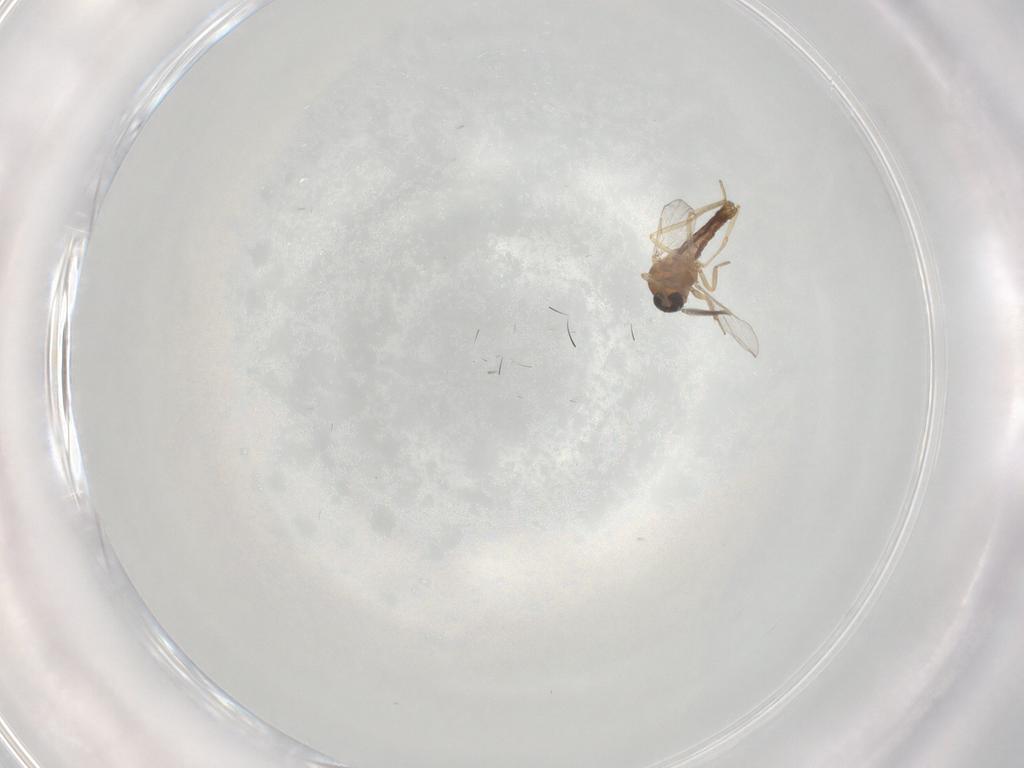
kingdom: Animalia
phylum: Arthropoda
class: Insecta
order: Diptera
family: Ceratopogonidae
